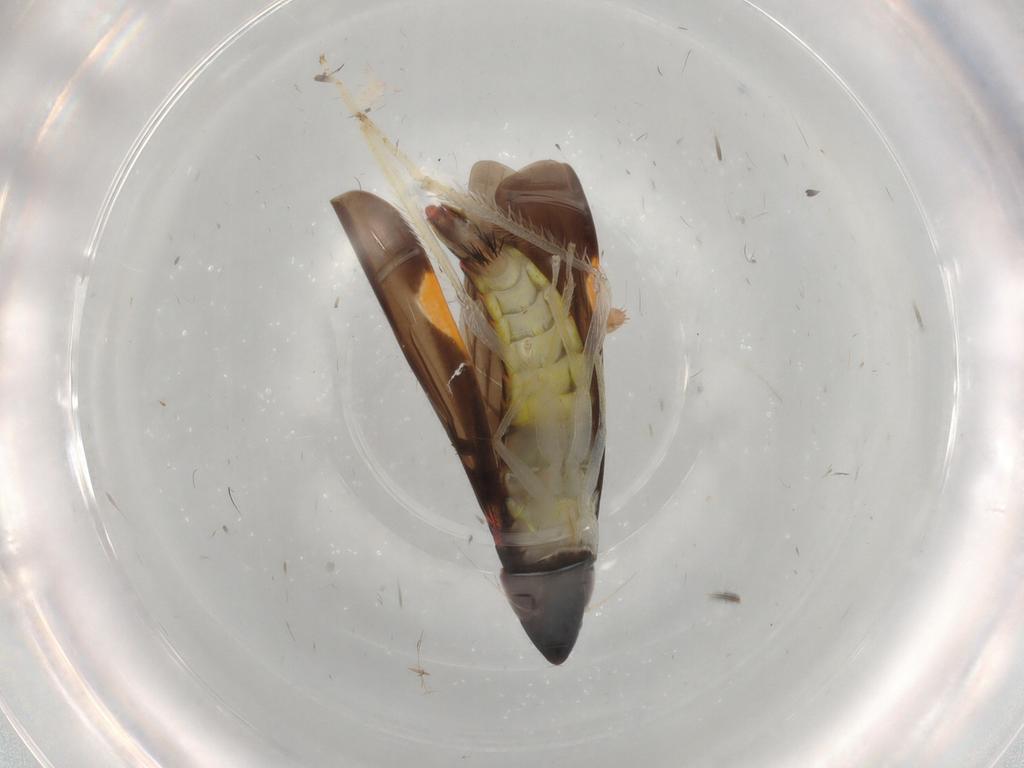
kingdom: Animalia
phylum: Arthropoda
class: Insecta
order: Hemiptera
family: Cicadellidae
